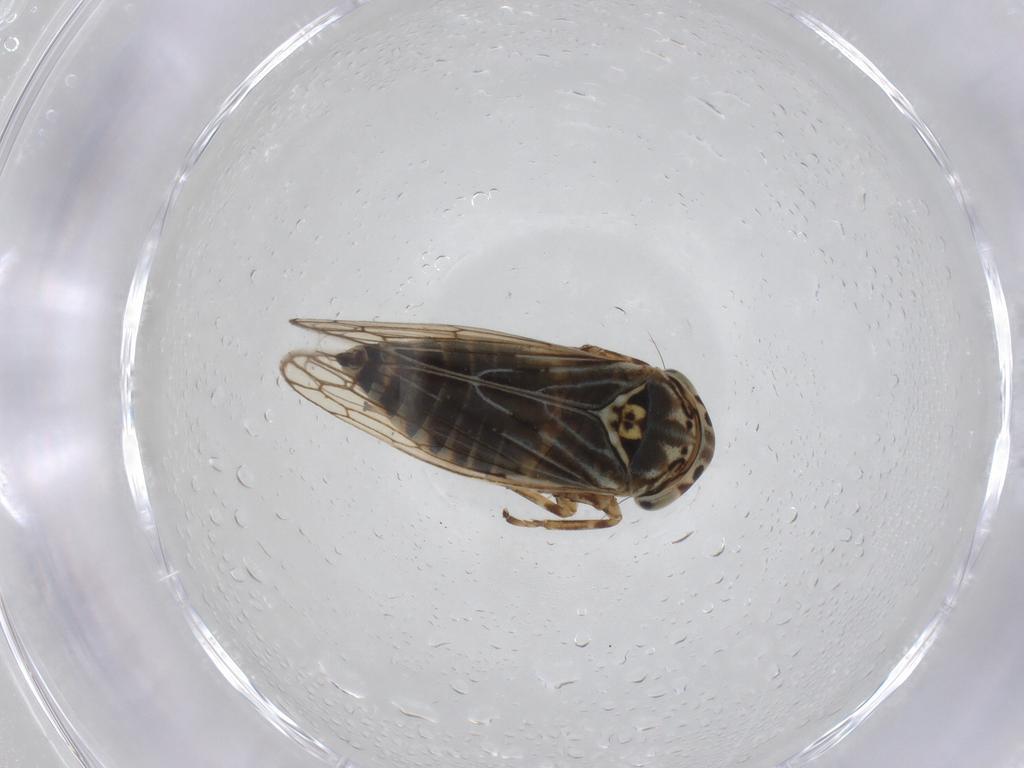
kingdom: Animalia
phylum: Arthropoda
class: Insecta
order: Hemiptera
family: Cicadellidae
